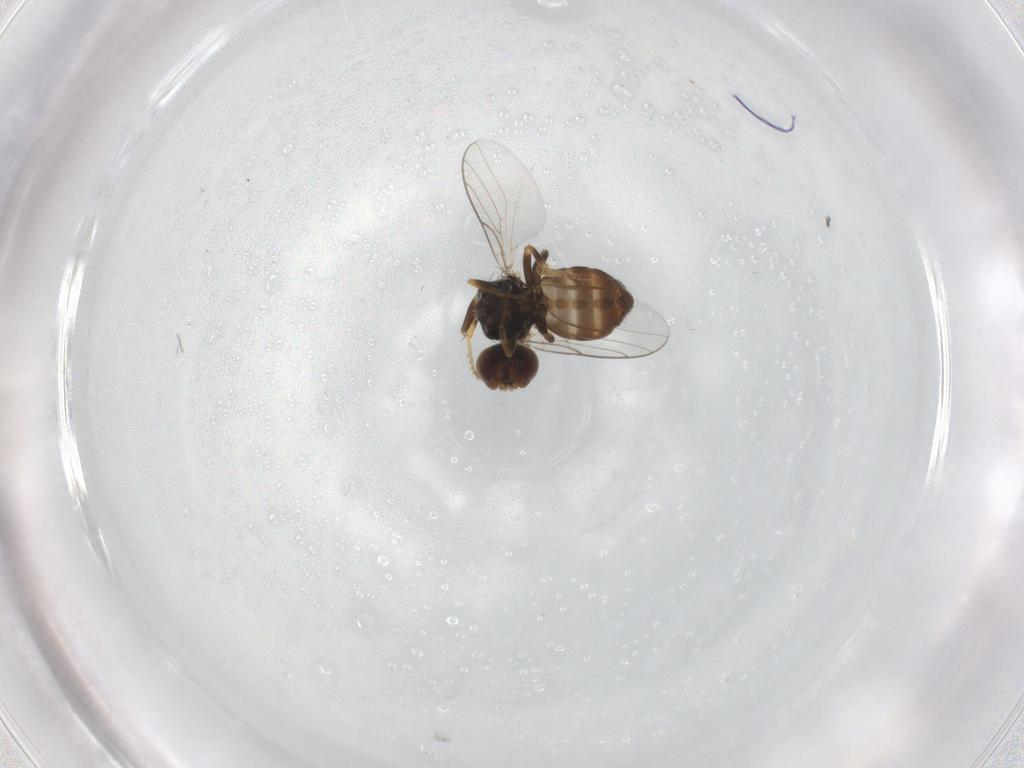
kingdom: Animalia
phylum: Arthropoda
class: Insecta
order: Diptera
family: Chloropidae
